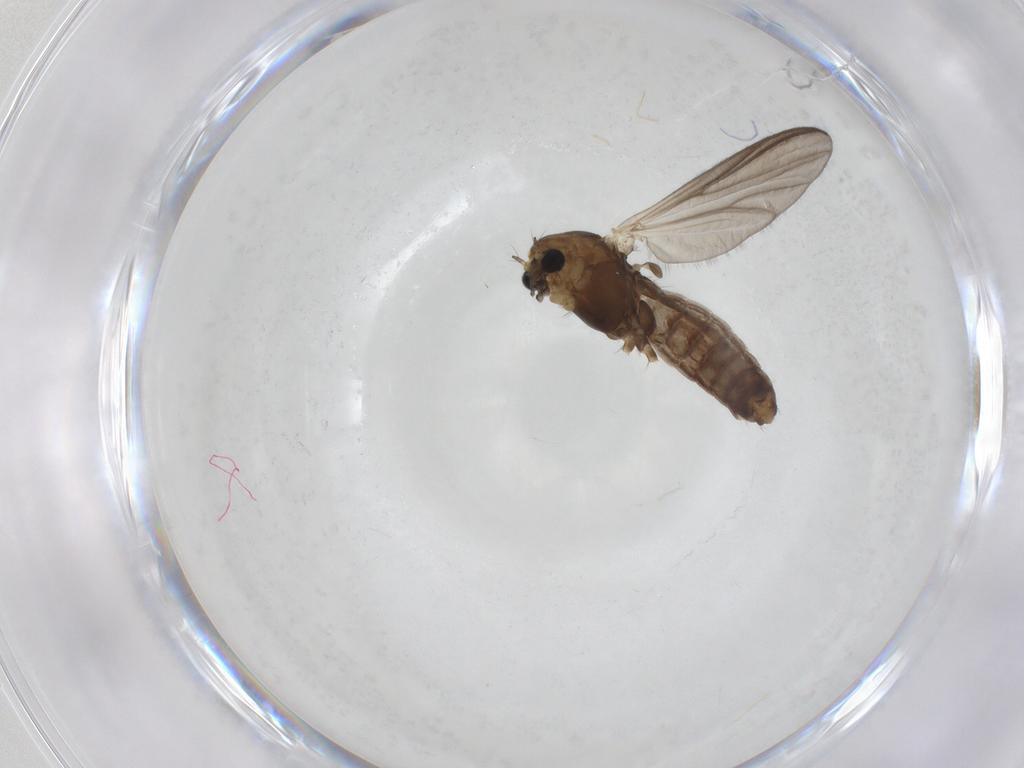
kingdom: Animalia
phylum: Arthropoda
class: Insecta
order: Diptera
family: Chironomidae
